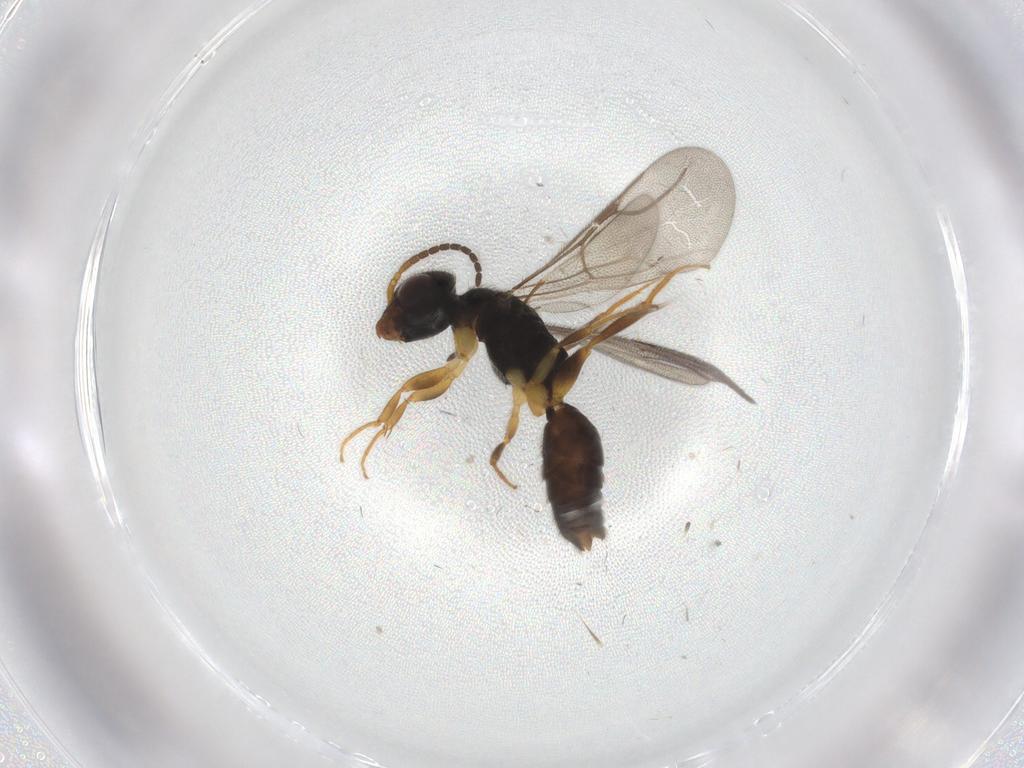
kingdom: Animalia
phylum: Arthropoda
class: Insecta
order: Hymenoptera
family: Bethylidae
